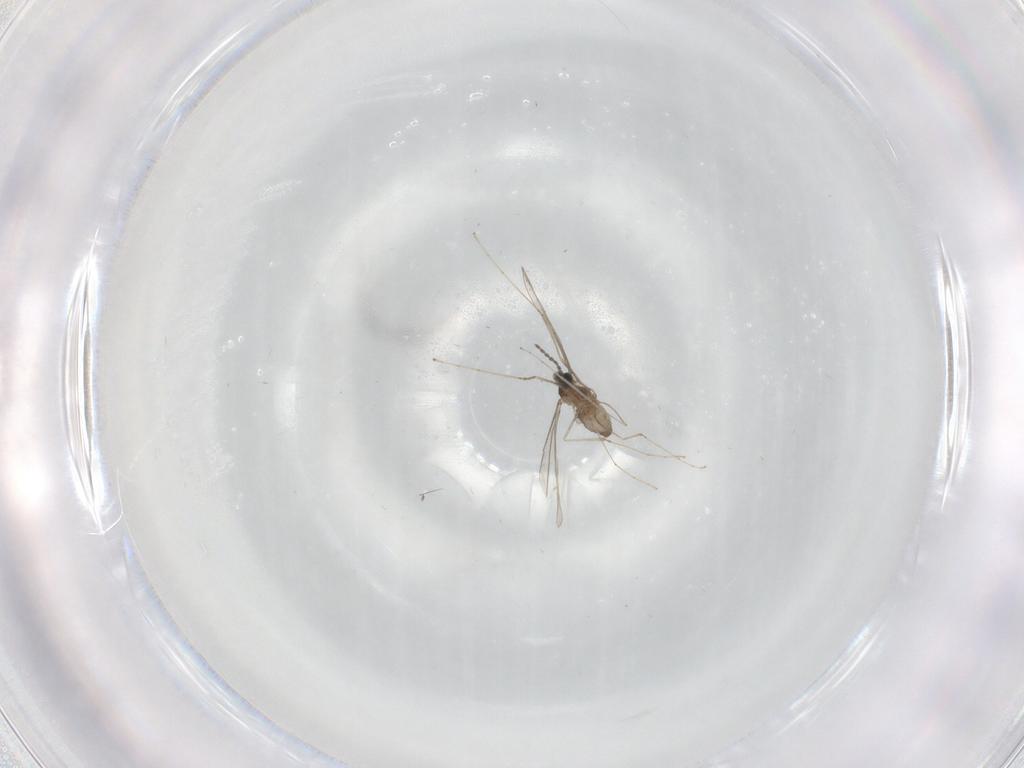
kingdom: Animalia
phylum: Arthropoda
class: Insecta
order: Diptera
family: Cecidomyiidae
